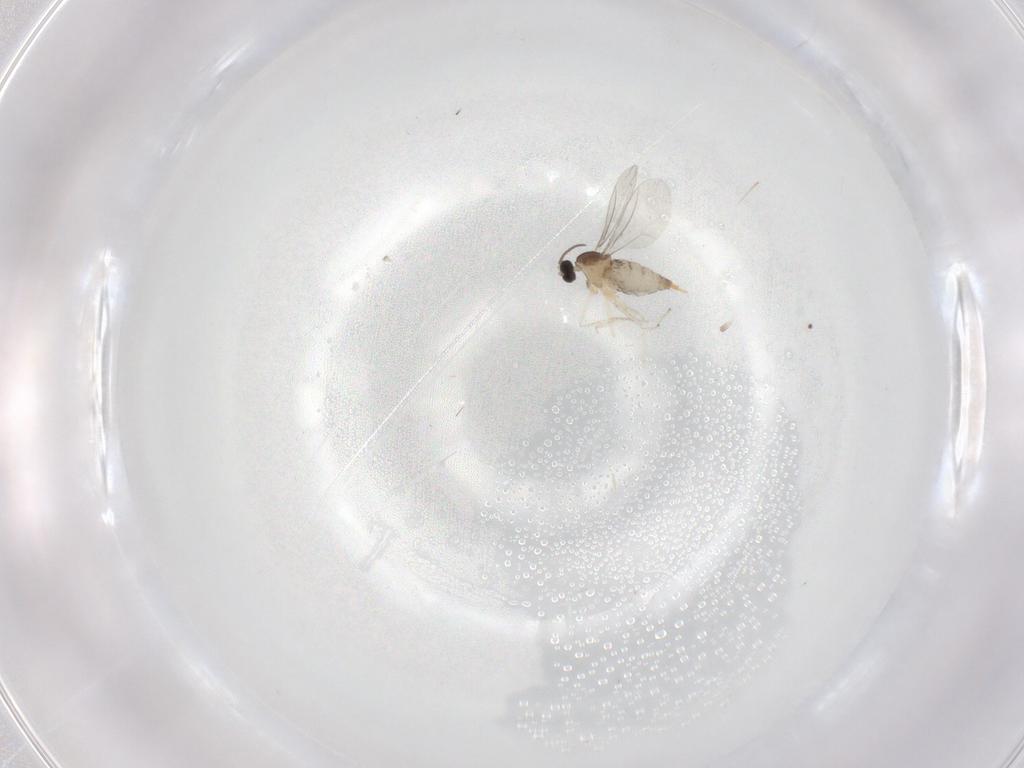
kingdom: Animalia
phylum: Arthropoda
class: Insecta
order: Diptera
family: Cecidomyiidae
